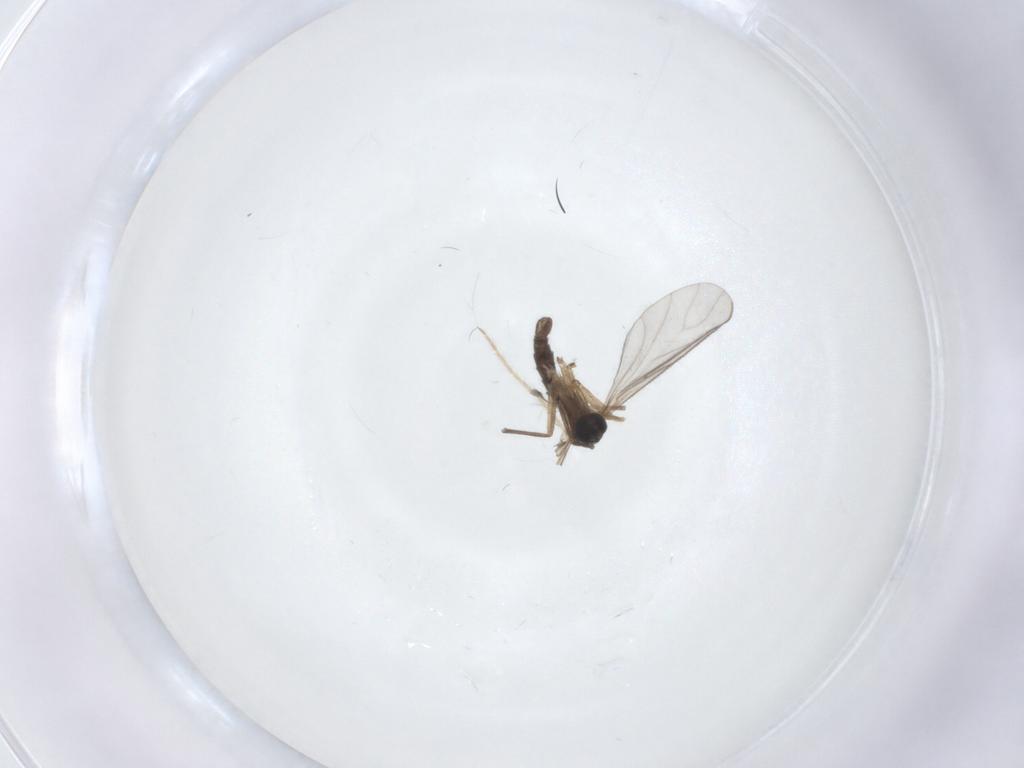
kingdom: Animalia
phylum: Arthropoda
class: Insecta
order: Diptera
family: Sciaridae
